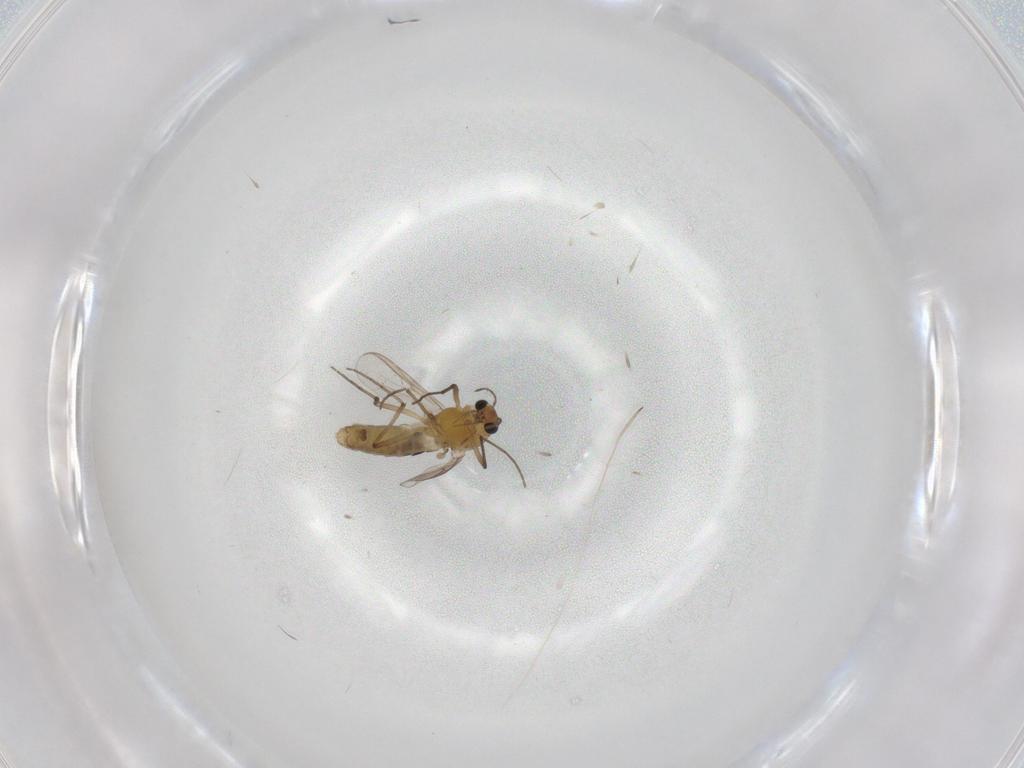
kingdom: Animalia
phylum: Arthropoda
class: Insecta
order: Diptera
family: Chironomidae
